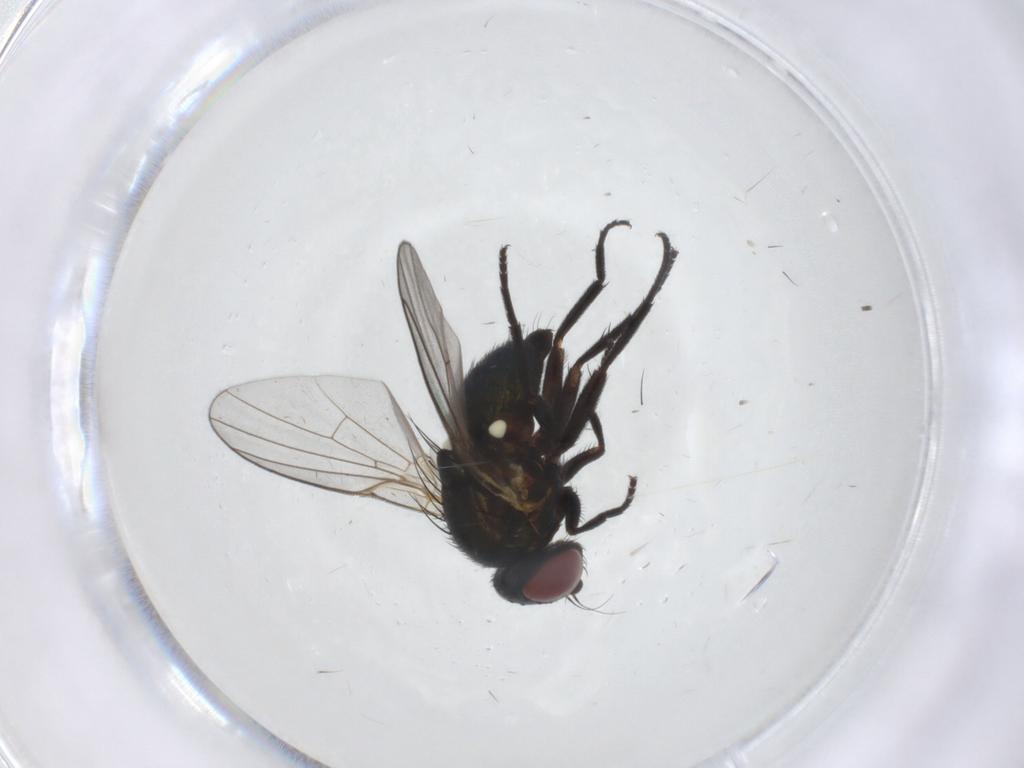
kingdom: Animalia
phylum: Arthropoda
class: Insecta
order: Diptera
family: Agromyzidae
